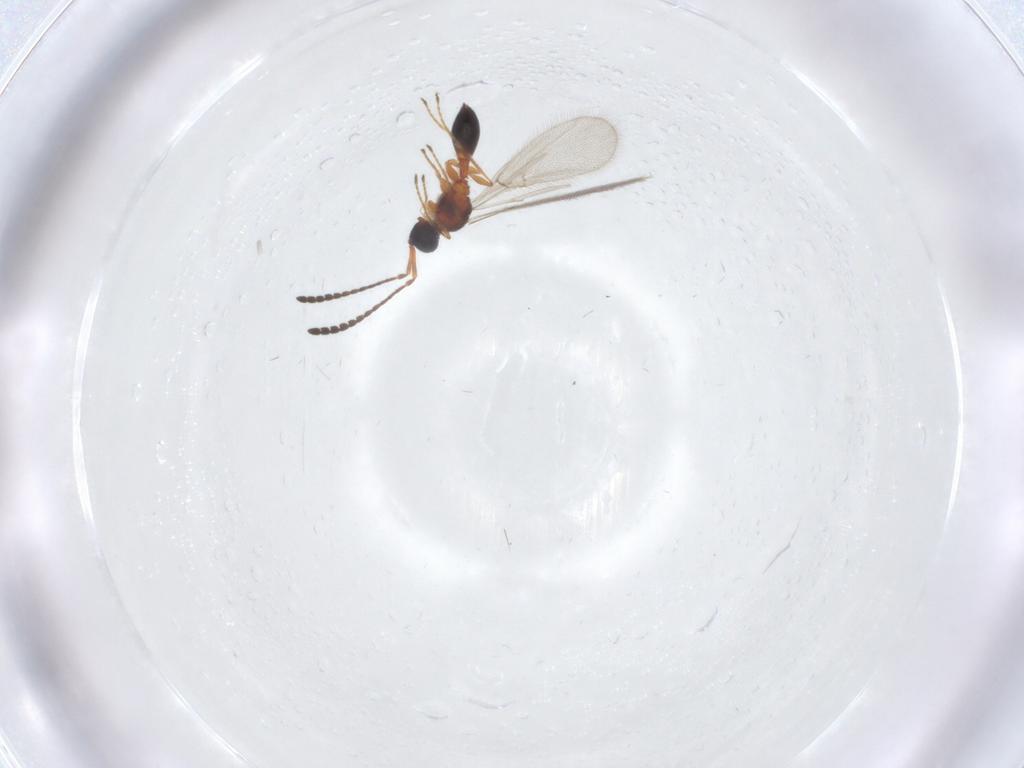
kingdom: Animalia
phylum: Arthropoda
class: Insecta
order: Hymenoptera
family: Diapriidae
